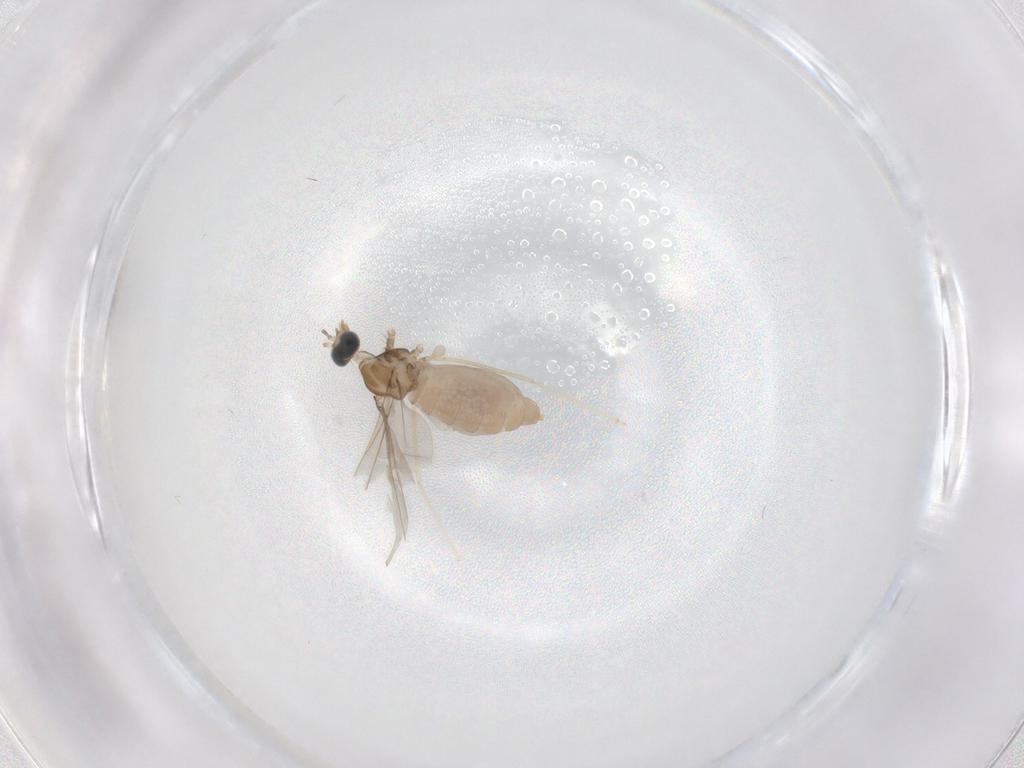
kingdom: Animalia
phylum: Arthropoda
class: Insecta
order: Diptera
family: Cecidomyiidae
